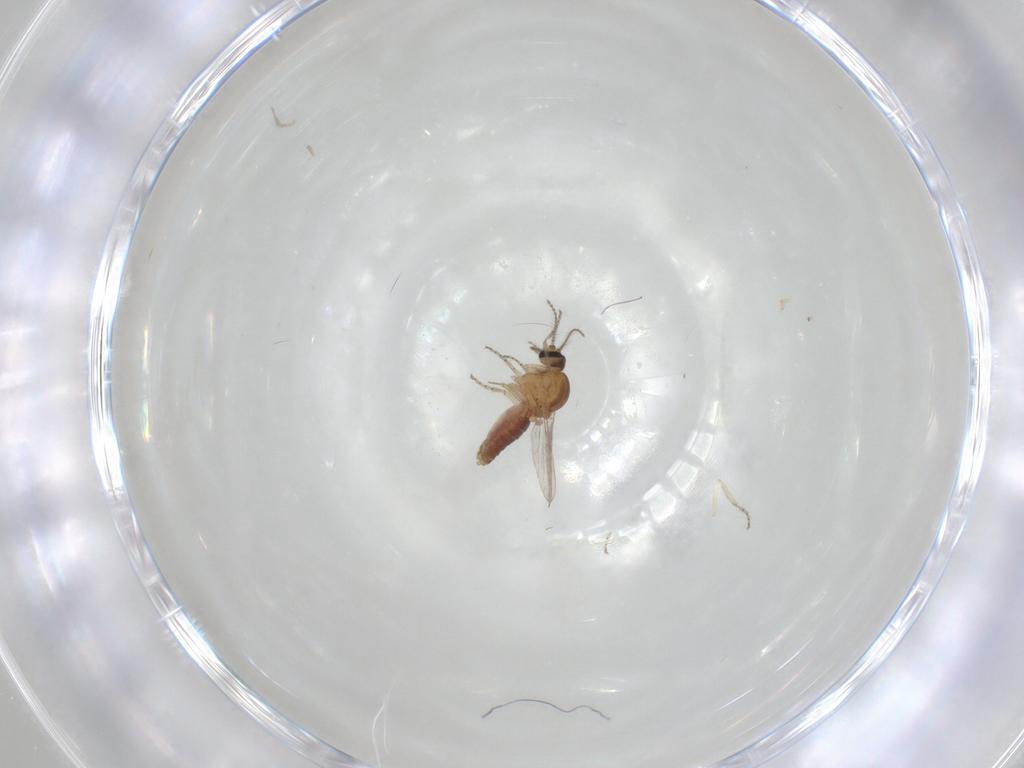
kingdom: Animalia
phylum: Arthropoda
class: Insecta
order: Diptera
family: Ceratopogonidae
